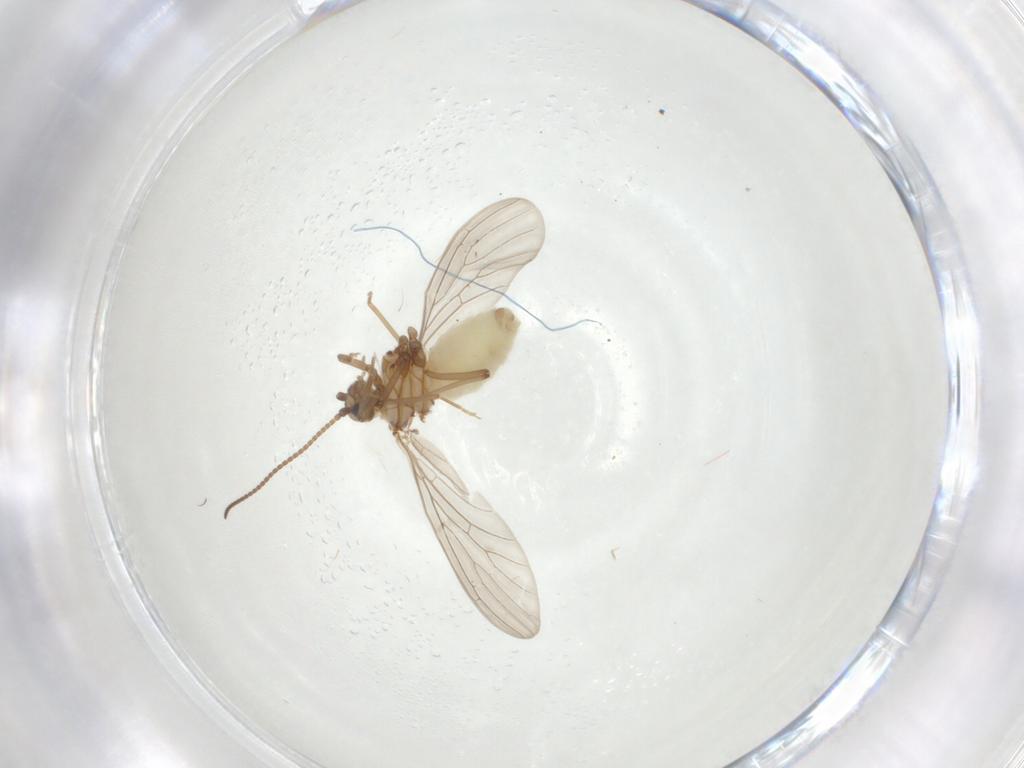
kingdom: Animalia
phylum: Arthropoda
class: Insecta
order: Neuroptera
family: Coniopterygidae
